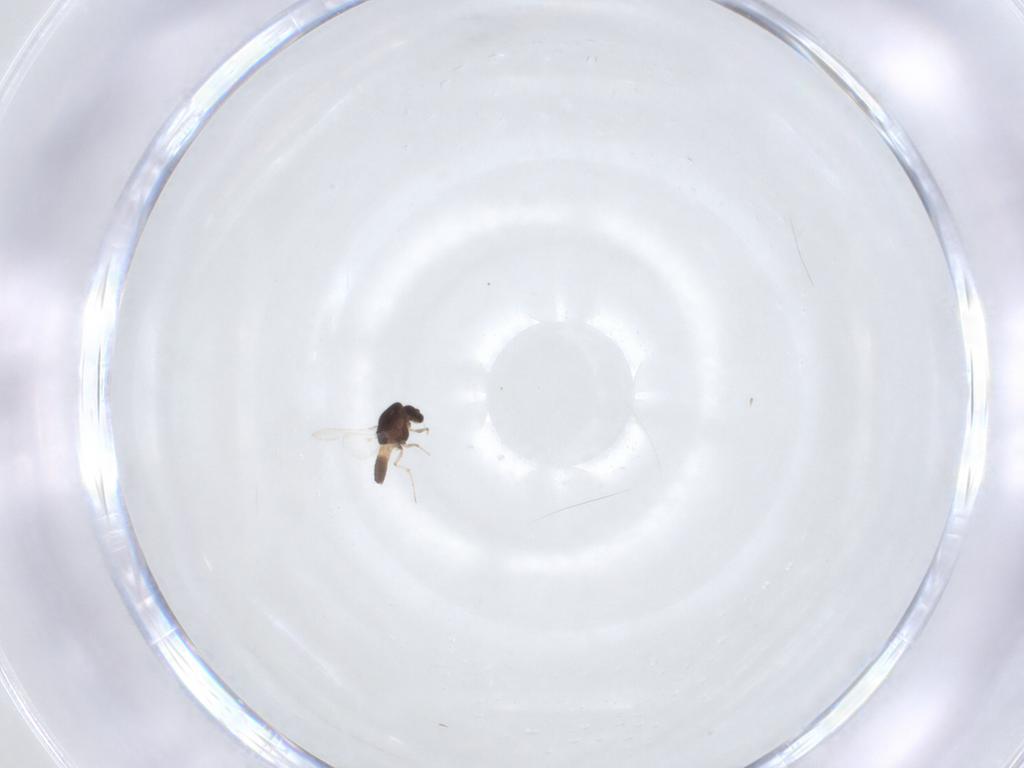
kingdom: Animalia
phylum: Arthropoda
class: Insecta
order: Diptera
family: Chironomidae
